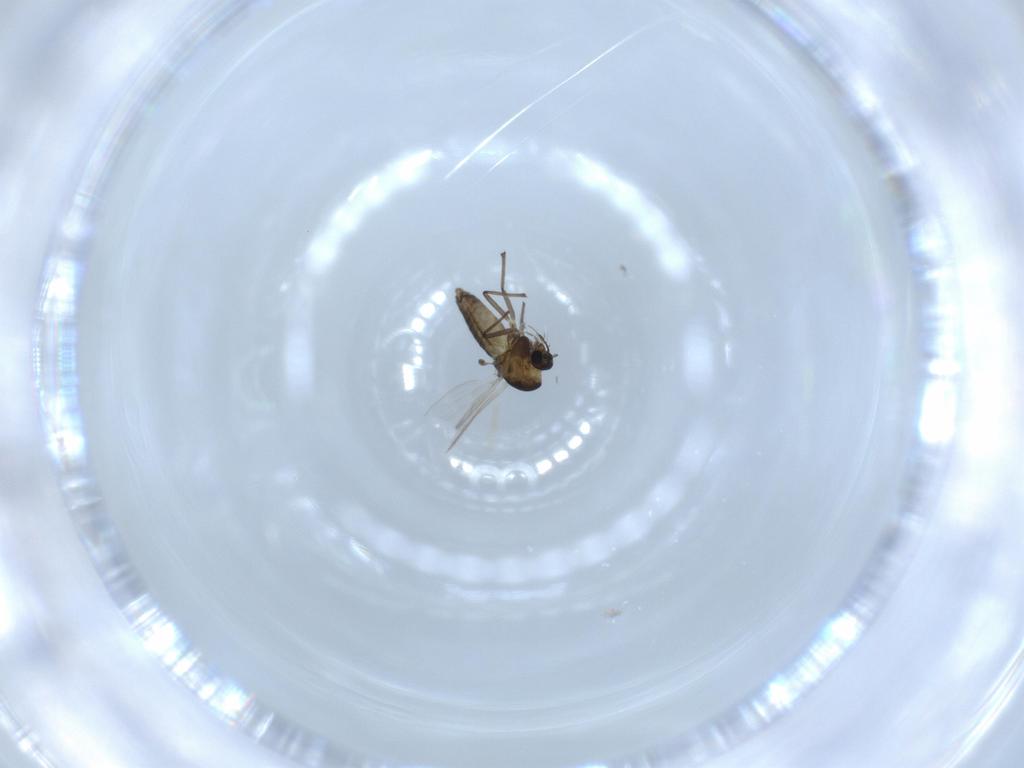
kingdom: Animalia
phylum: Arthropoda
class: Insecta
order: Diptera
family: Chironomidae
